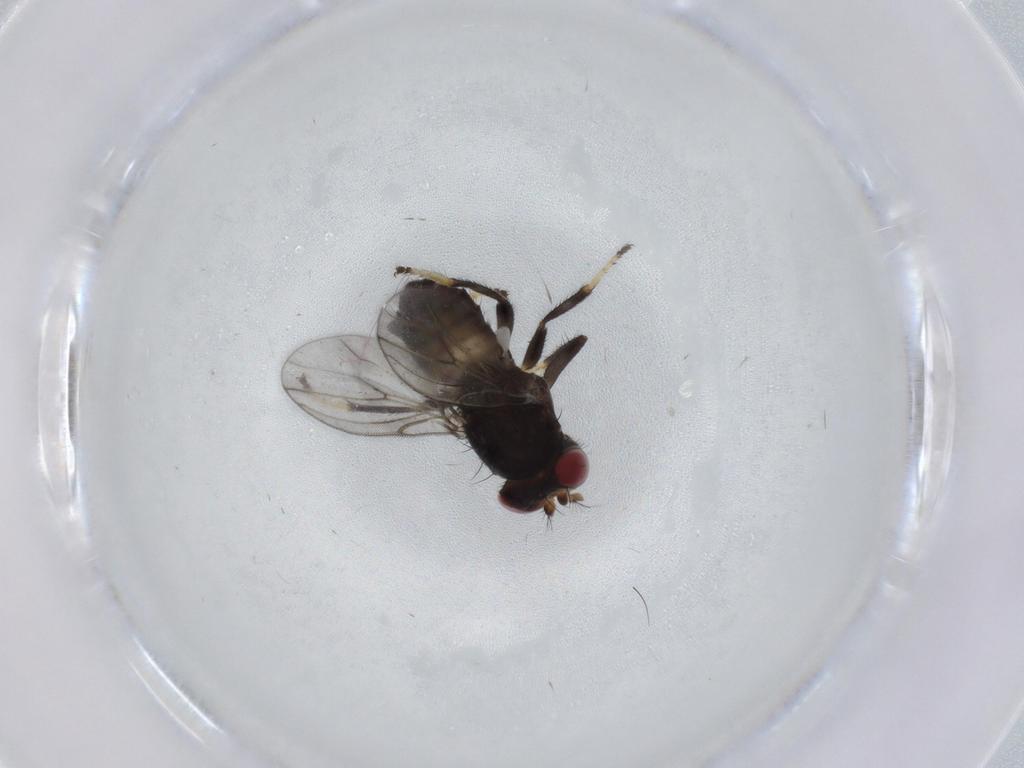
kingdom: Animalia
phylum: Arthropoda
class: Insecta
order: Diptera
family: Periscelididae
